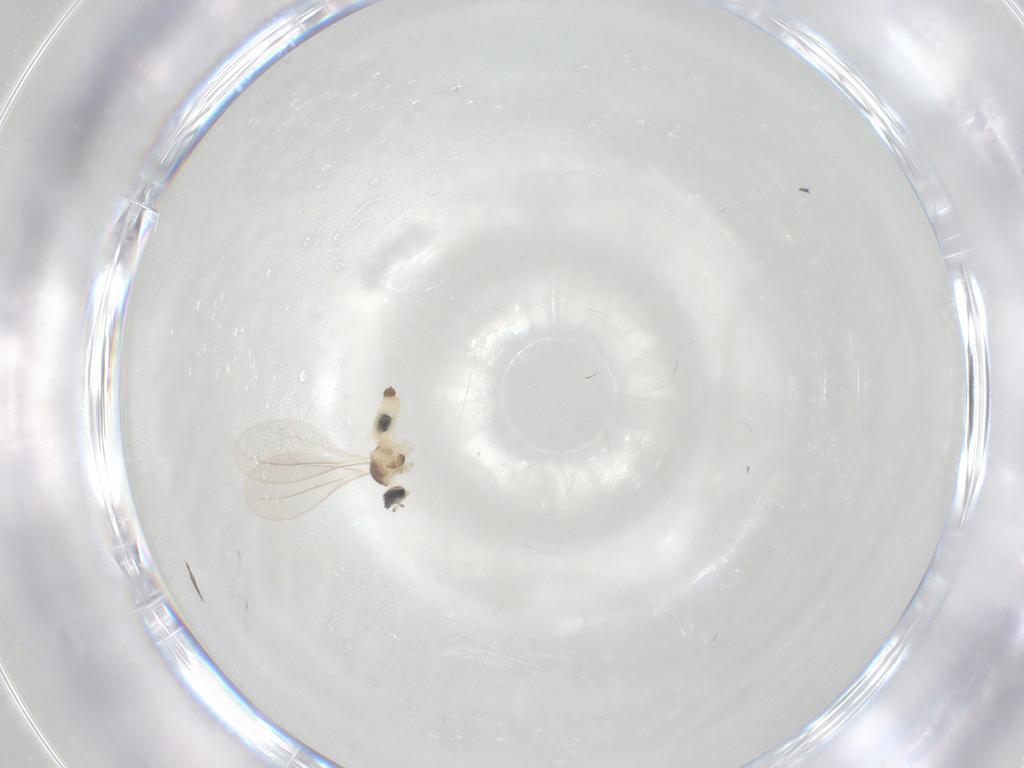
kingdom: Animalia
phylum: Arthropoda
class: Insecta
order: Diptera
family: Cecidomyiidae
